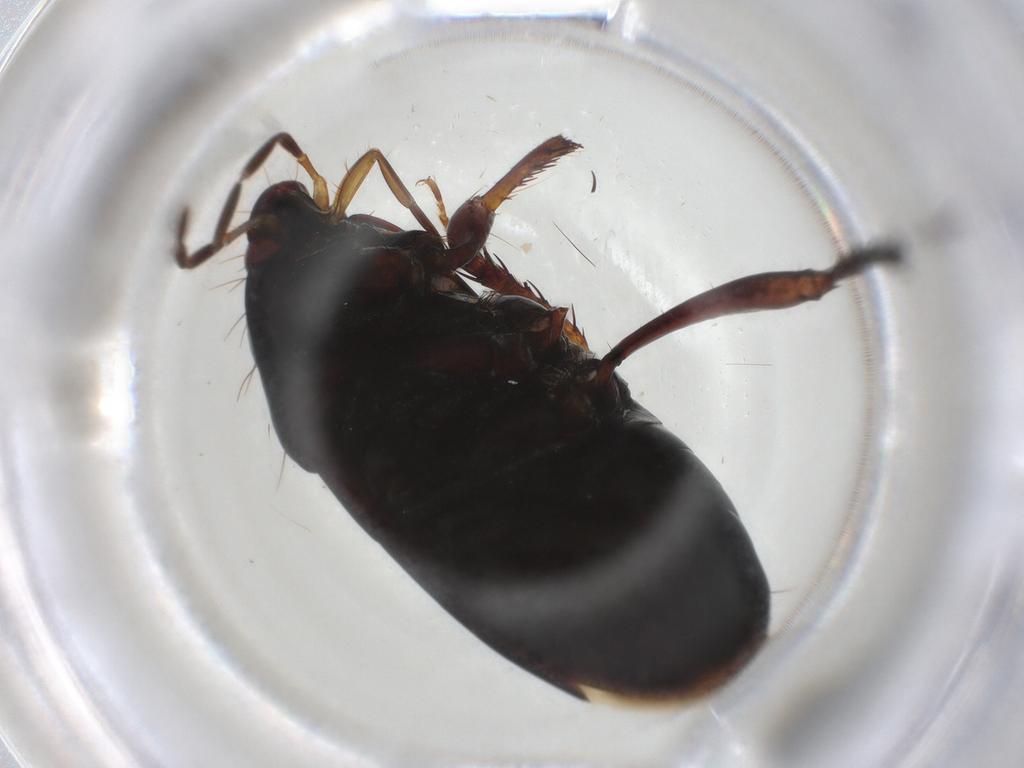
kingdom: Animalia
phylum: Arthropoda
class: Insecta
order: Hemiptera
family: Cydnidae
